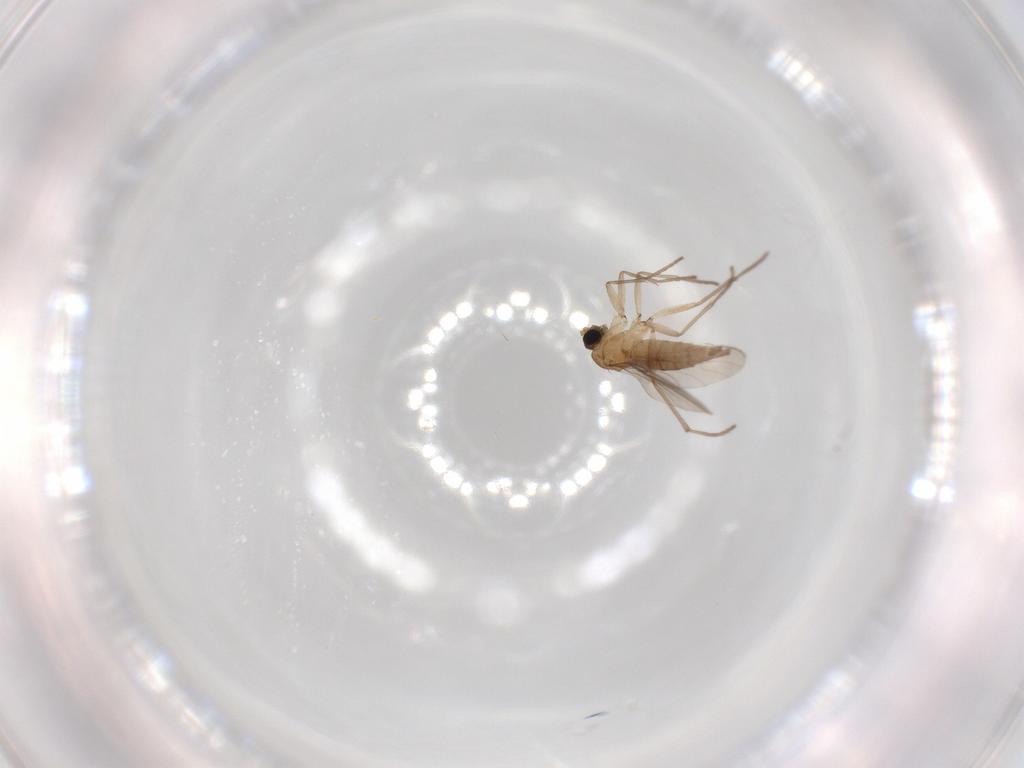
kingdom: Animalia
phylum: Arthropoda
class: Insecta
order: Diptera
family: Sciaridae
